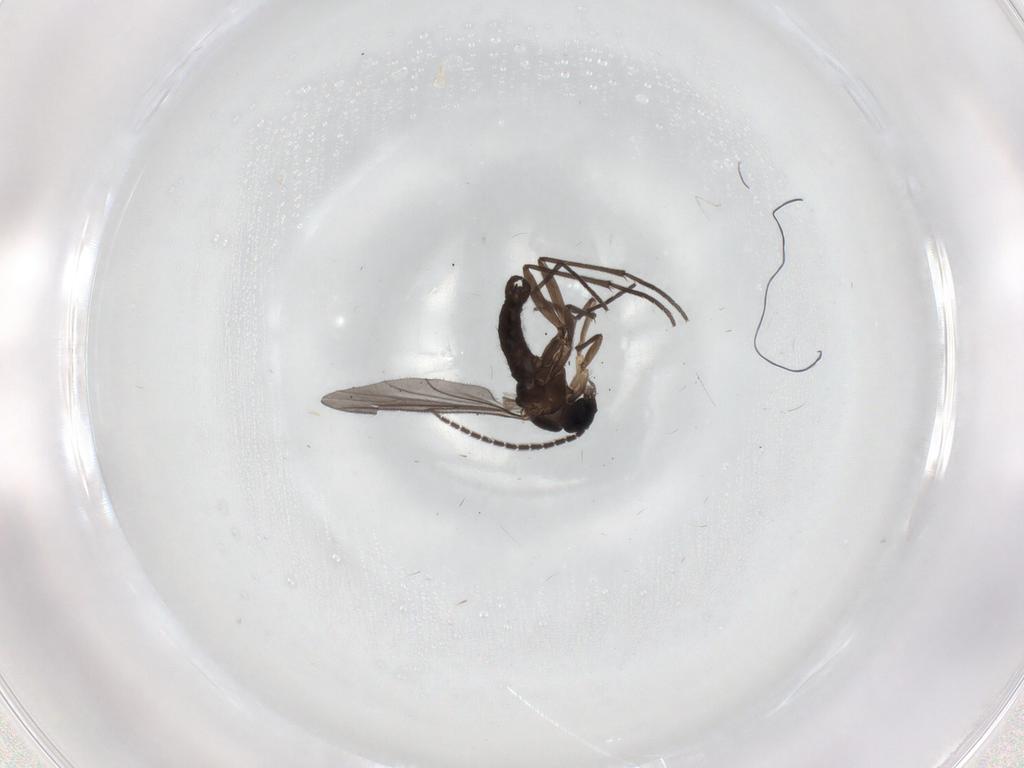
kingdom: Animalia
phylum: Arthropoda
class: Insecta
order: Diptera
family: Sciaridae
